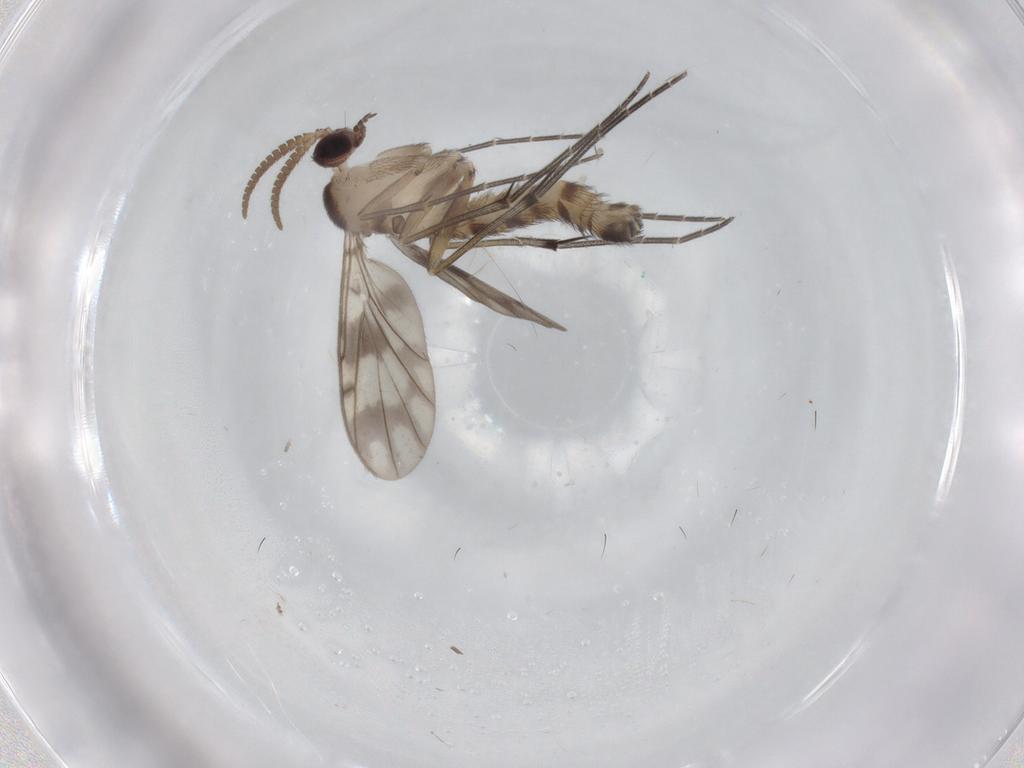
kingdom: Animalia
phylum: Arthropoda
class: Insecta
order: Diptera
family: Keroplatidae
